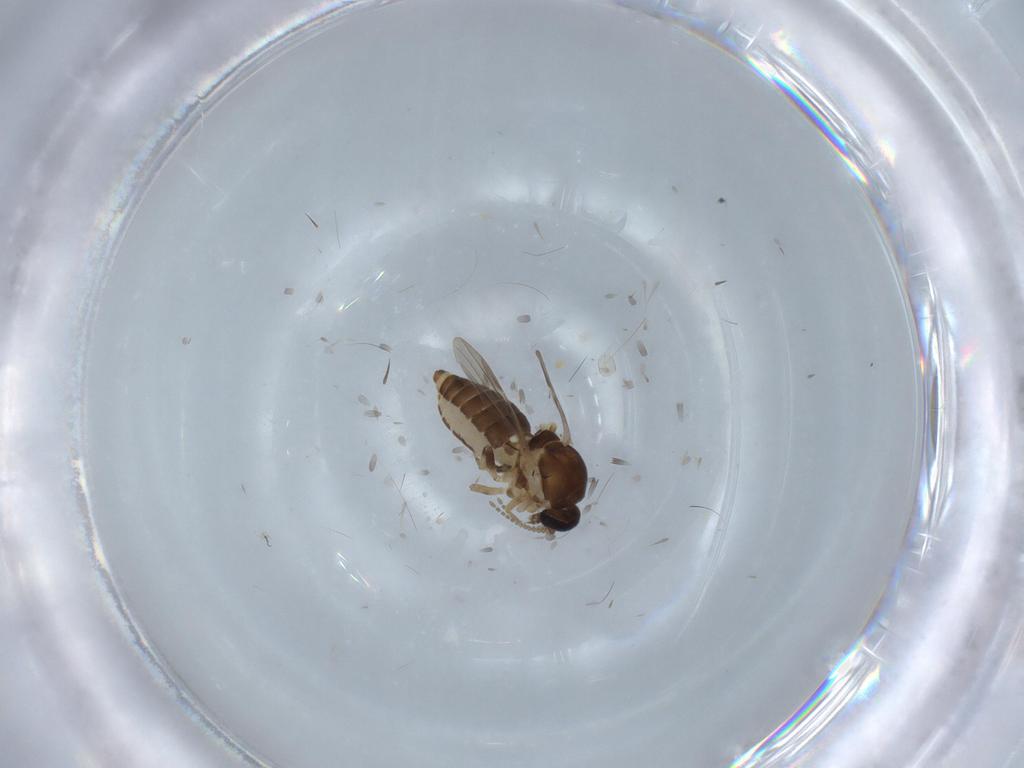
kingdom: Animalia
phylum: Arthropoda
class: Insecta
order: Diptera
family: Ceratopogonidae
